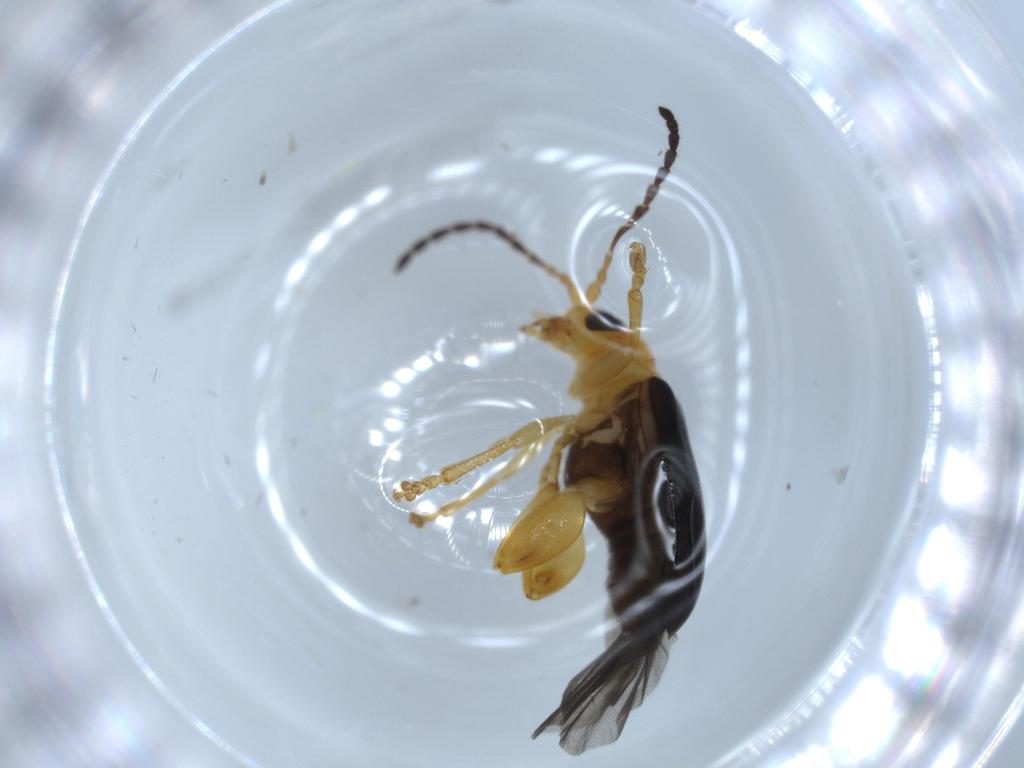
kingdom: Animalia
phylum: Arthropoda
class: Insecta
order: Coleoptera
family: Chrysomelidae
